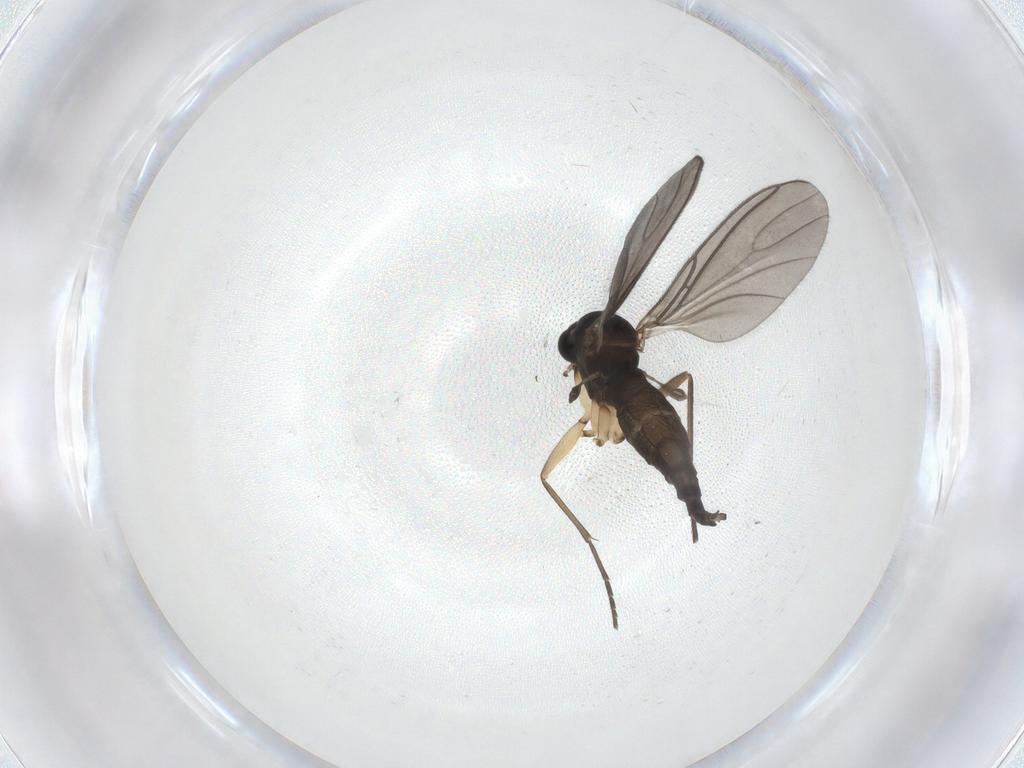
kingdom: Animalia
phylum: Arthropoda
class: Insecta
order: Diptera
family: Sciaridae
